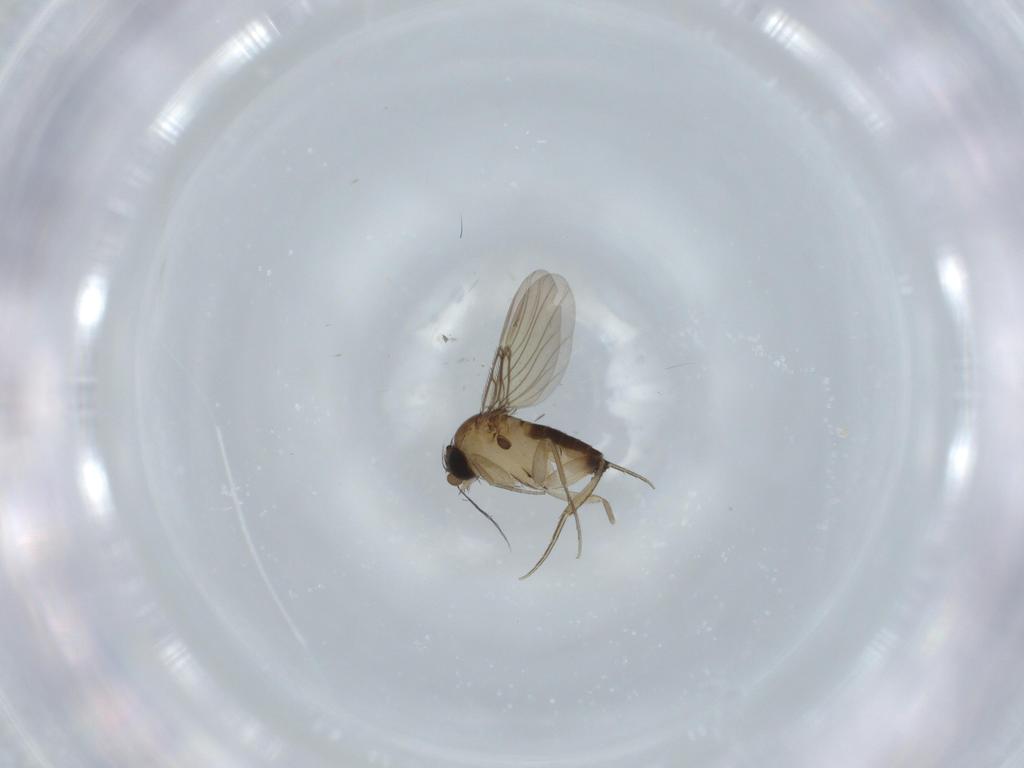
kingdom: Animalia
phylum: Arthropoda
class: Insecta
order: Diptera
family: Phoridae
